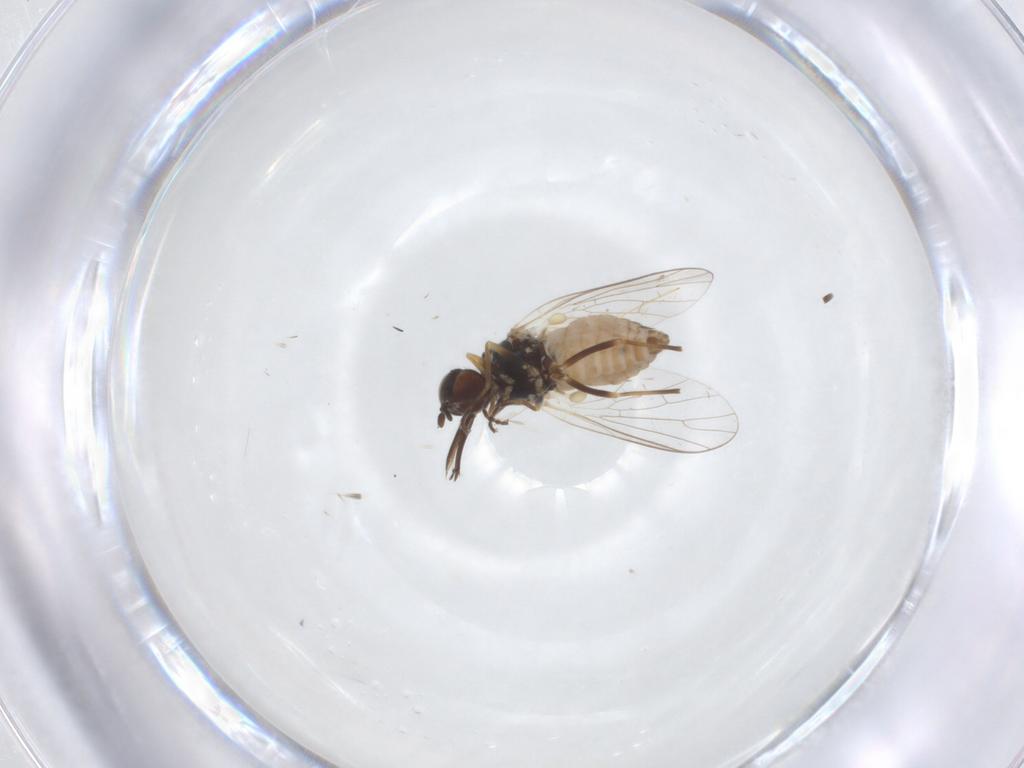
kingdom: Animalia
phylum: Arthropoda
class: Insecta
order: Diptera
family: Bombyliidae
